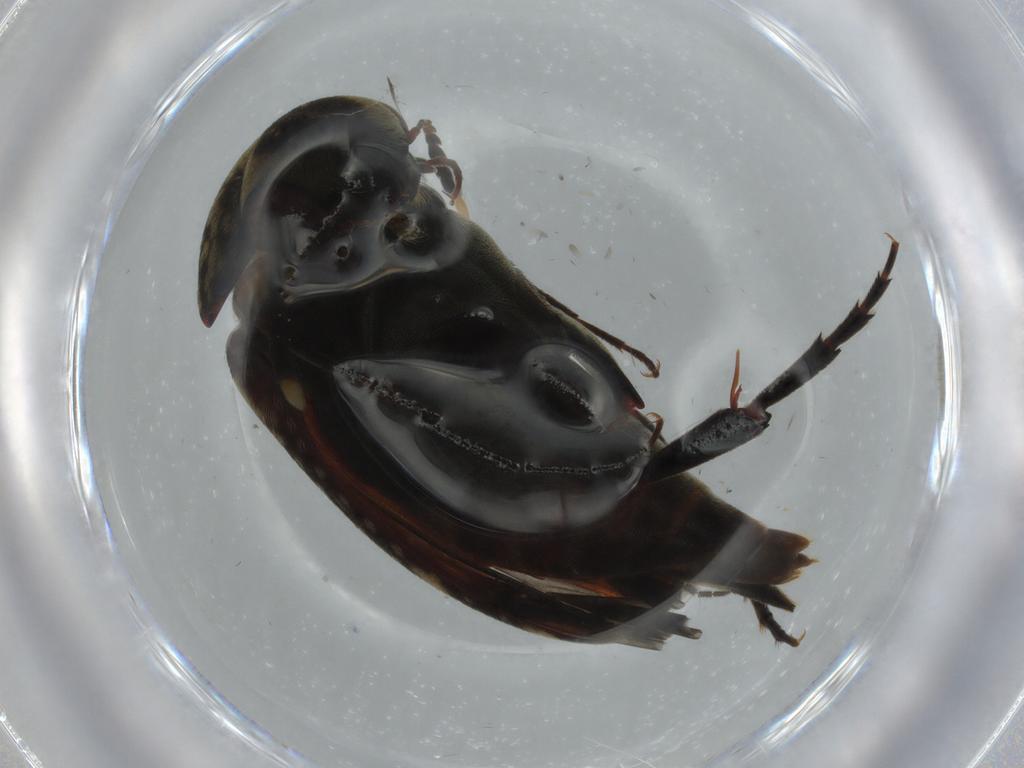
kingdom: Animalia
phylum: Arthropoda
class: Insecta
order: Coleoptera
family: Mordellidae
